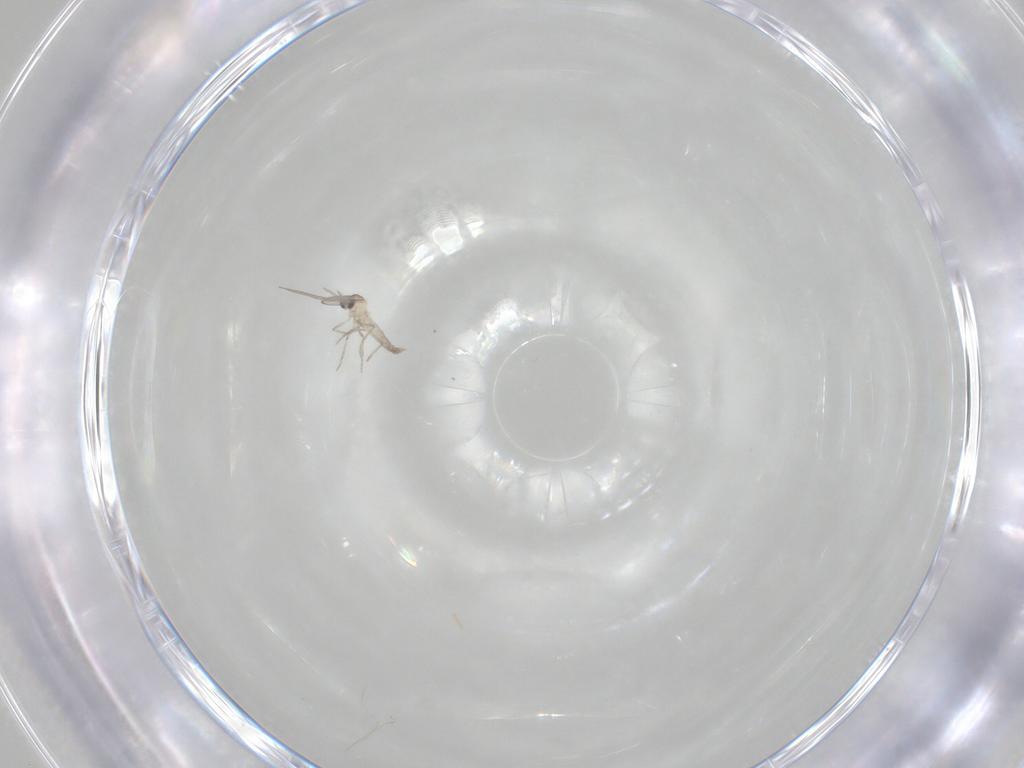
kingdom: Animalia
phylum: Arthropoda
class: Insecta
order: Diptera
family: Cecidomyiidae
